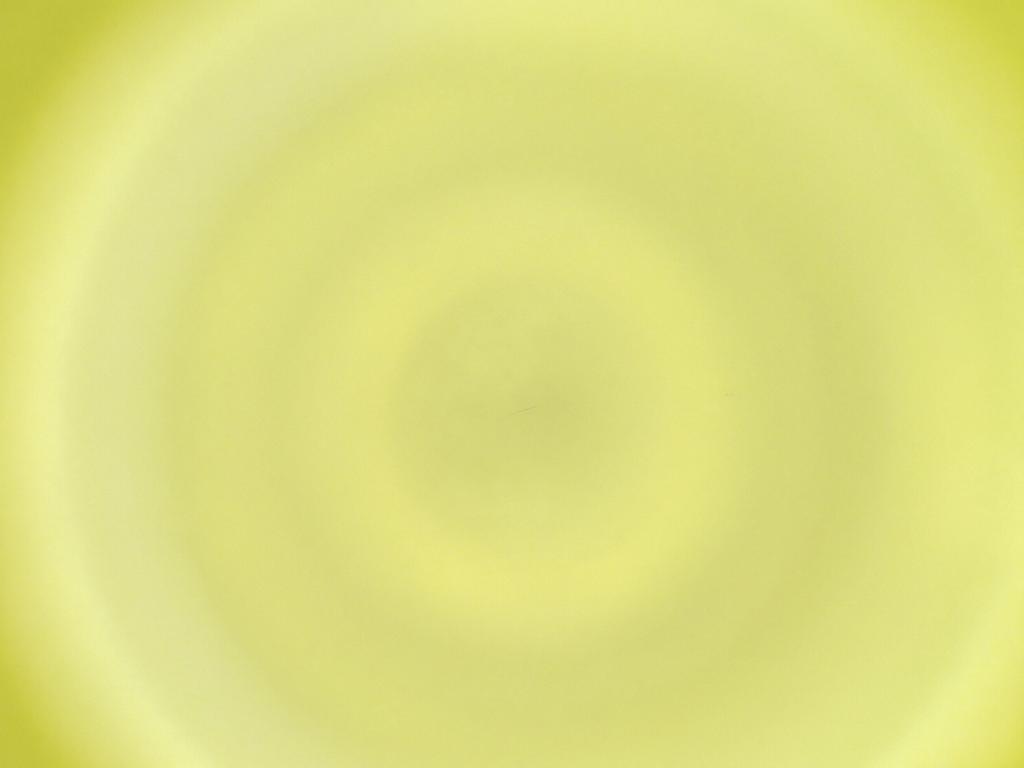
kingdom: Animalia
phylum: Arthropoda
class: Insecta
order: Diptera
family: Cecidomyiidae
